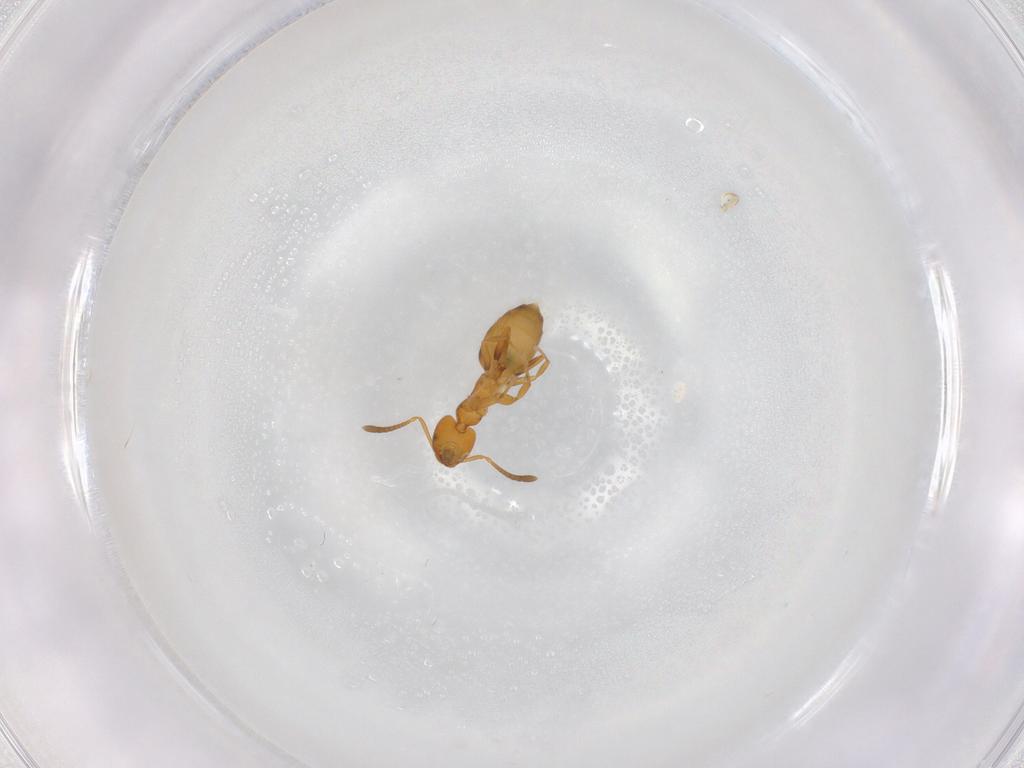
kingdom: Animalia
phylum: Arthropoda
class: Insecta
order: Hymenoptera
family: Formicidae
